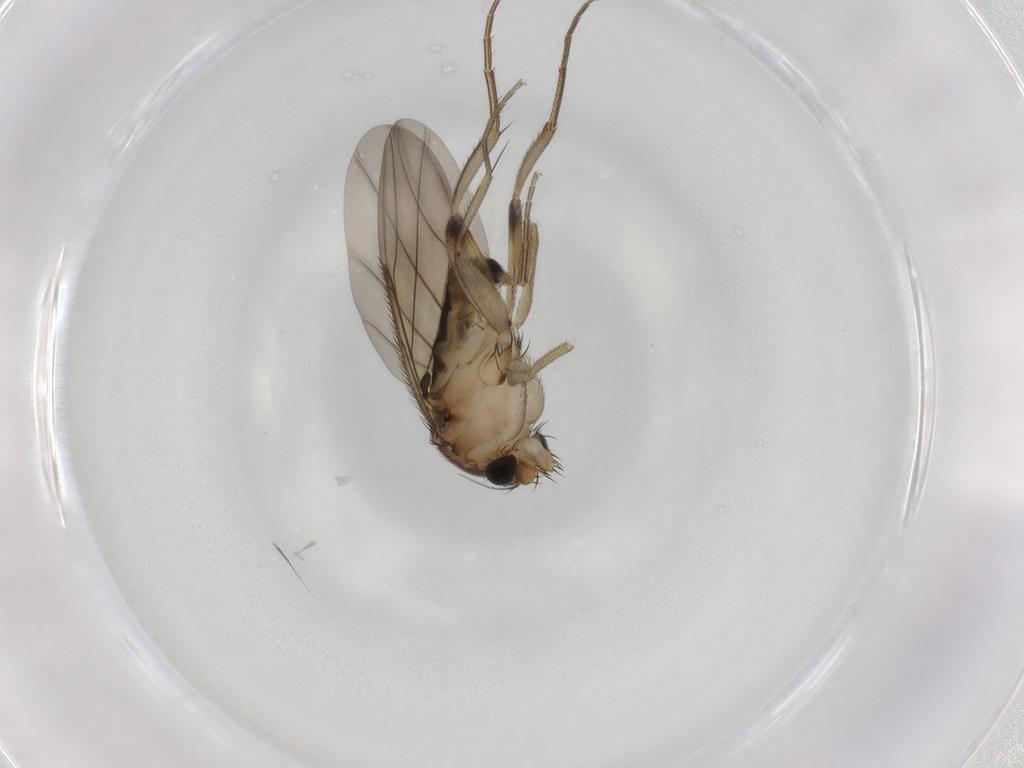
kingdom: Animalia
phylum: Arthropoda
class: Insecta
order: Diptera
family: Phoridae
